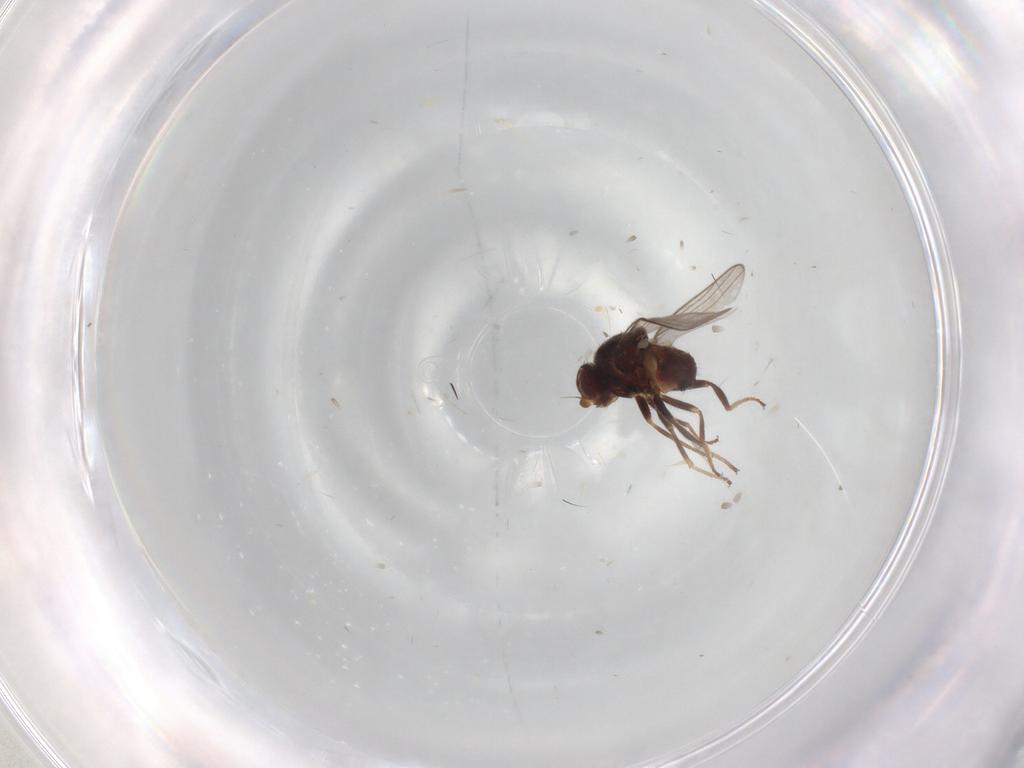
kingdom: Animalia
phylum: Arthropoda
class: Insecta
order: Diptera
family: Chloropidae
